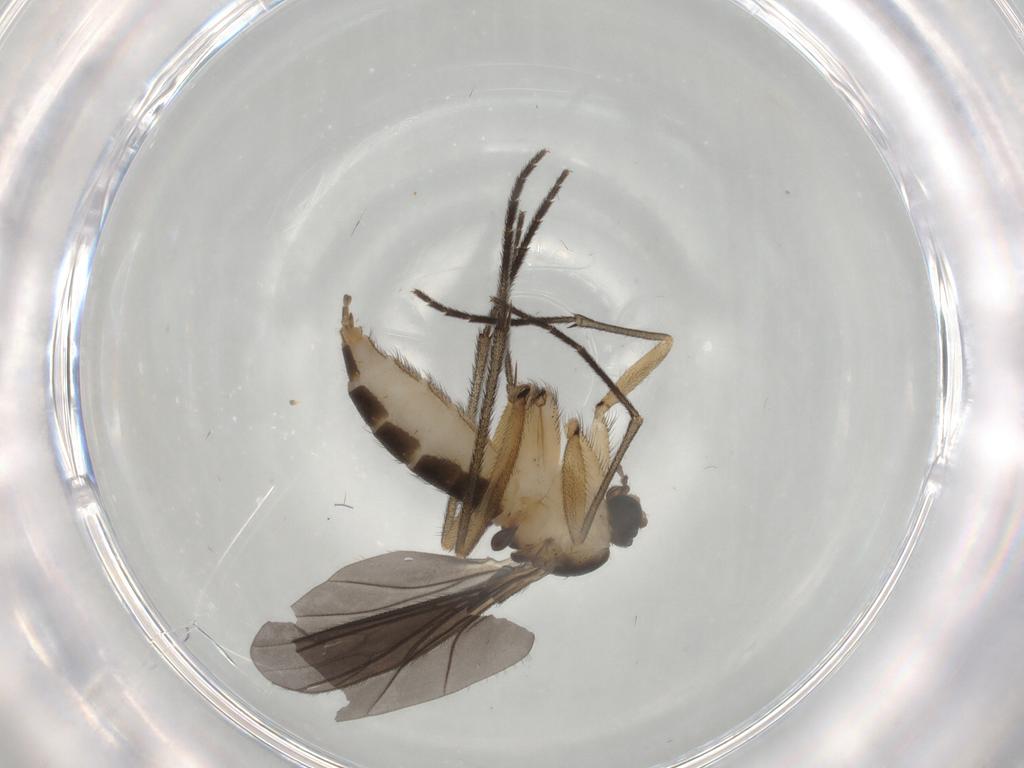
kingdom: Animalia
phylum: Arthropoda
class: Insecta
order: Diptera
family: Sciaridae
